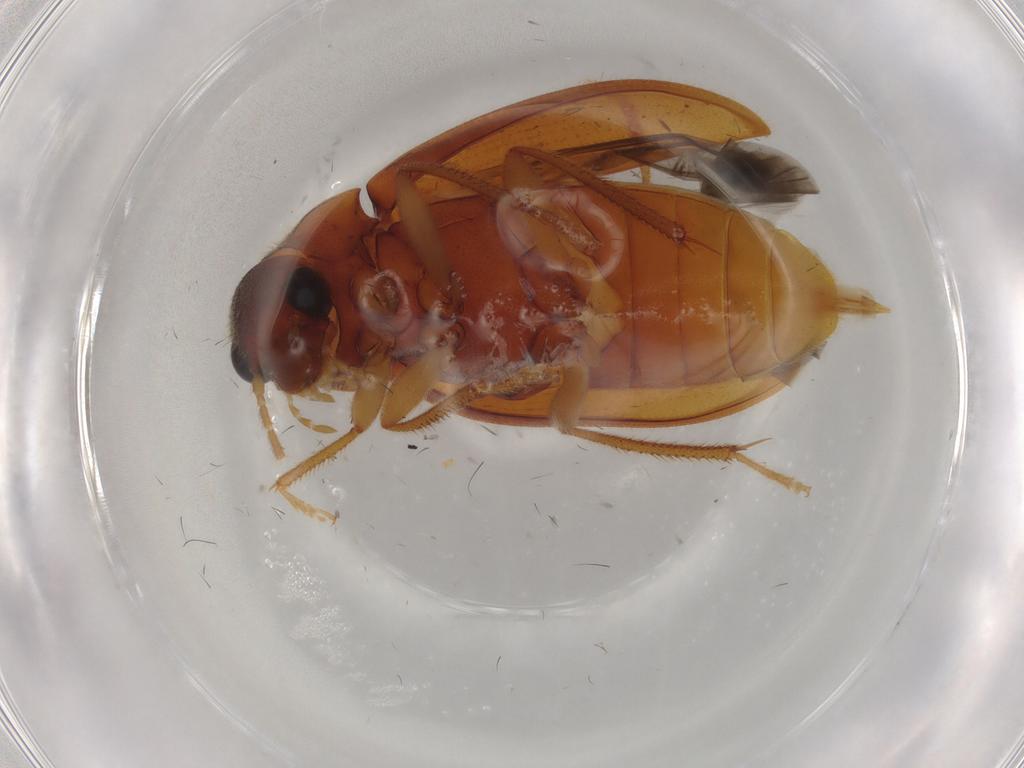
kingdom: Animalia
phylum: Arthropoda
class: Insecta
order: Coleoptera
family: Ptilodactylidae
